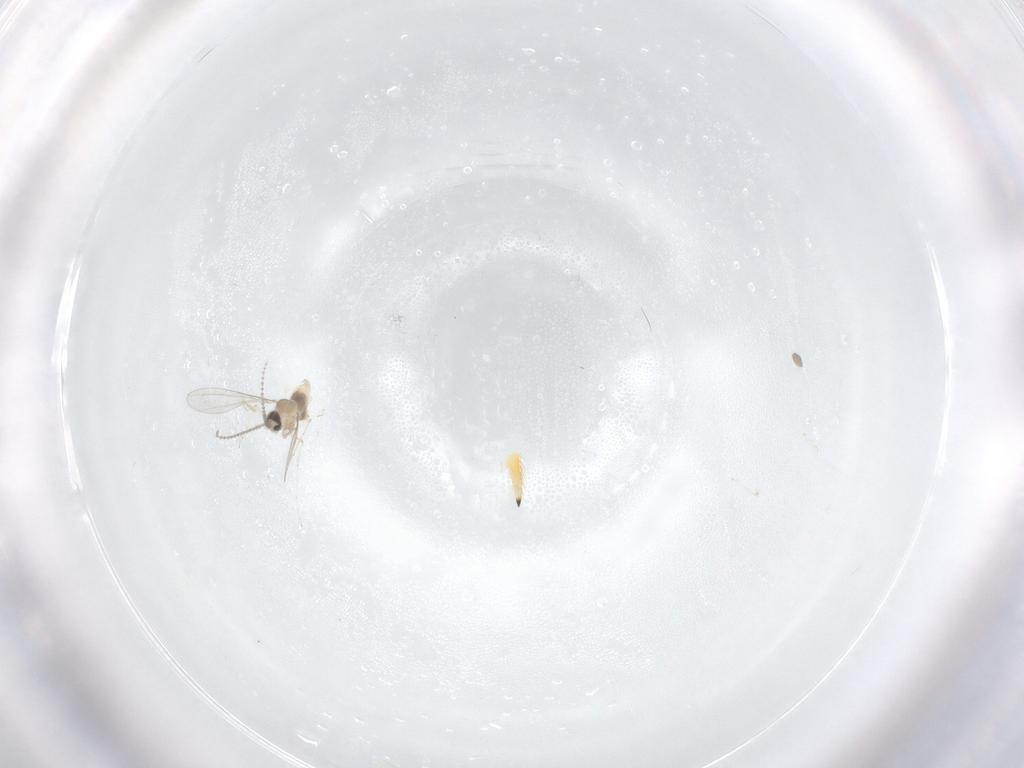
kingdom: Animalia
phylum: Arthropoda
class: Insecta
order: Diptera
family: Cecidomyiidae
